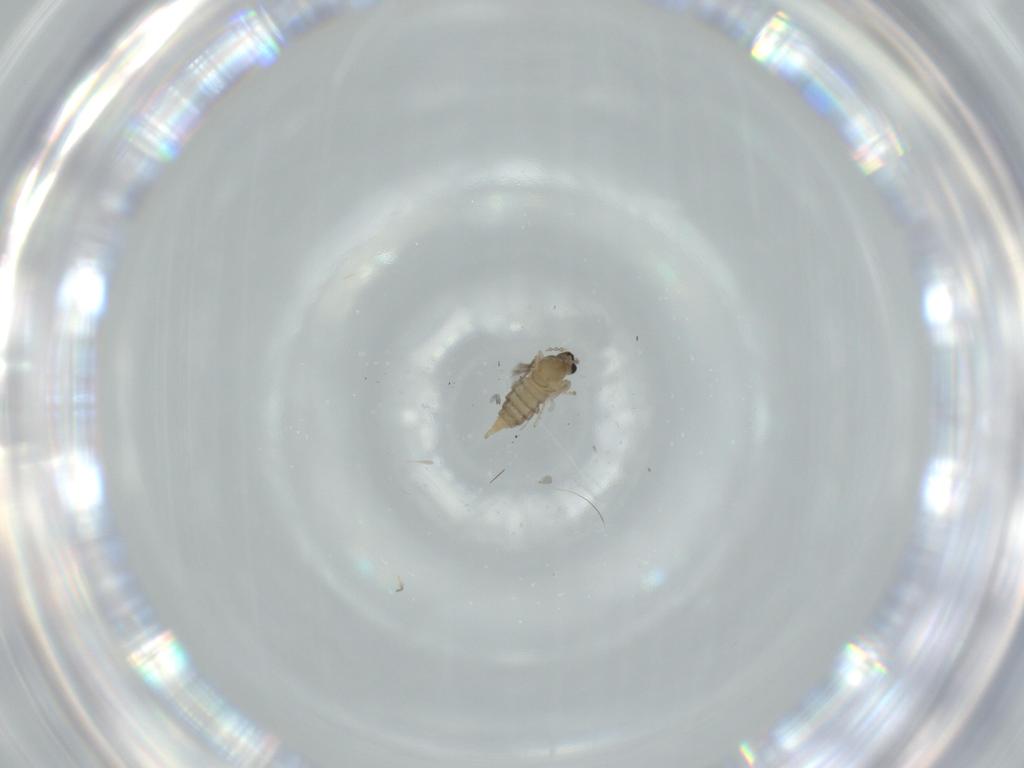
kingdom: Animalia
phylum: Arthropoda
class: Insecta
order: Diptera
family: Cecidomyiidae
